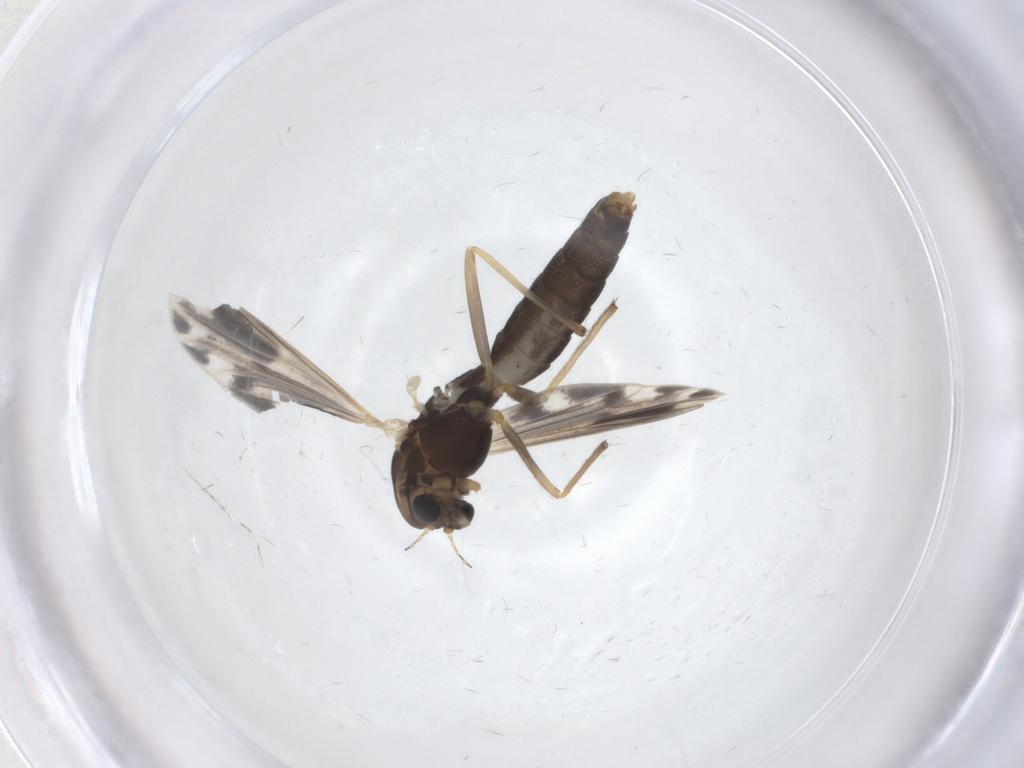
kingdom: Animalia
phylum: Arthropoda
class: Insecta
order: Diptera
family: Chironomidae
